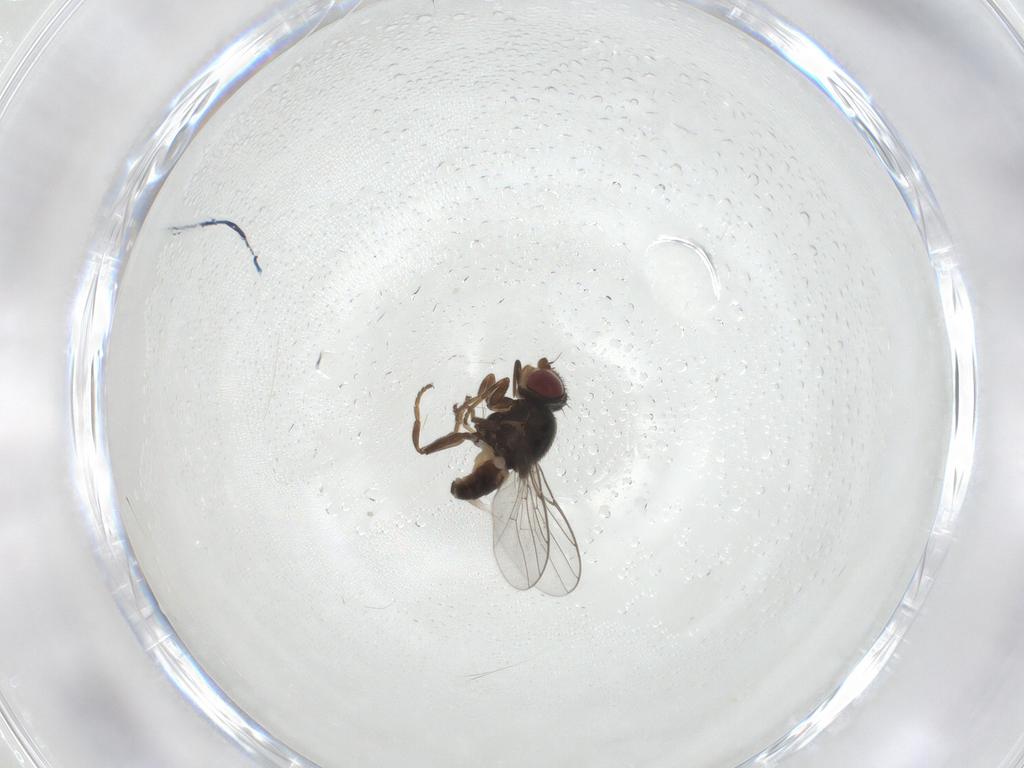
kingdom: Animalia
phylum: Arthropoda
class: Insecta
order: Diptera
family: Chloropidae
